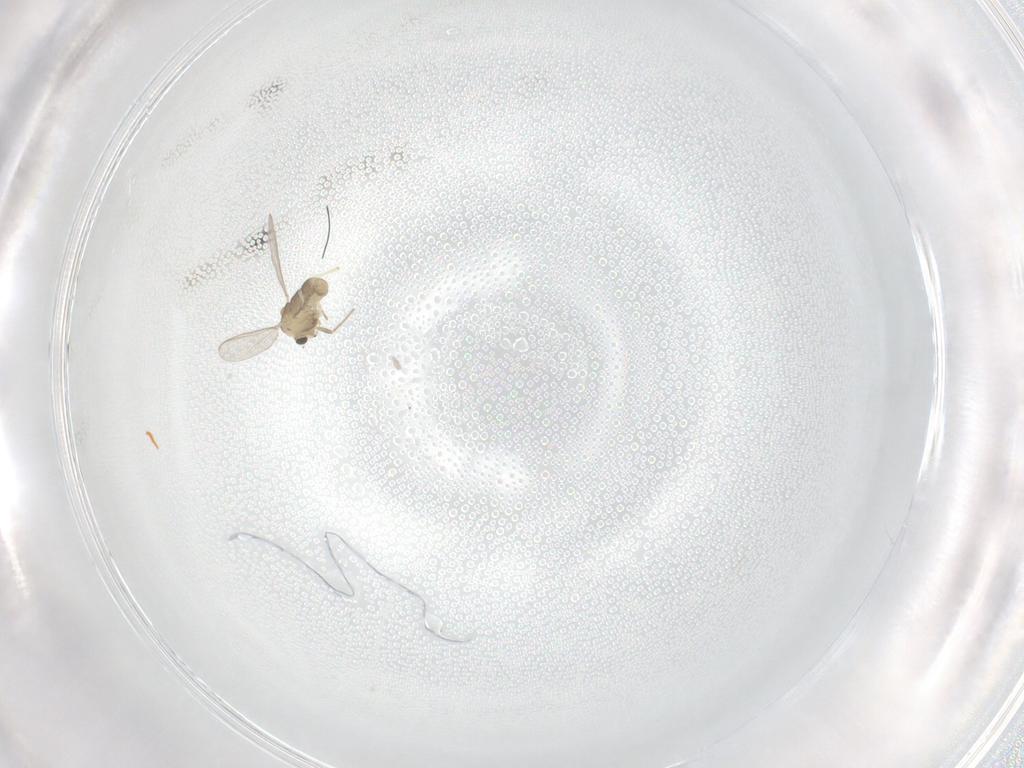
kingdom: Animalia
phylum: Arthropoda
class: Insecta
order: Diptera
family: Chironomidae
